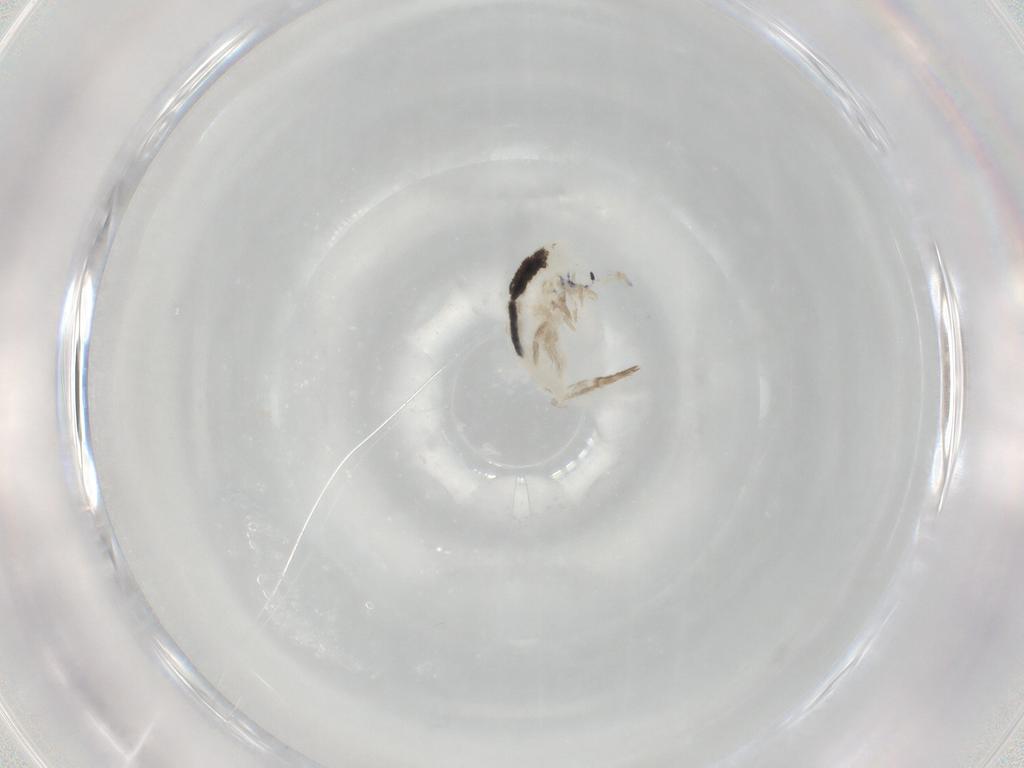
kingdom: Animalia
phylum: Arthropoda
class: Collembola
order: Entomobryomorpha
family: Entomobryidae
